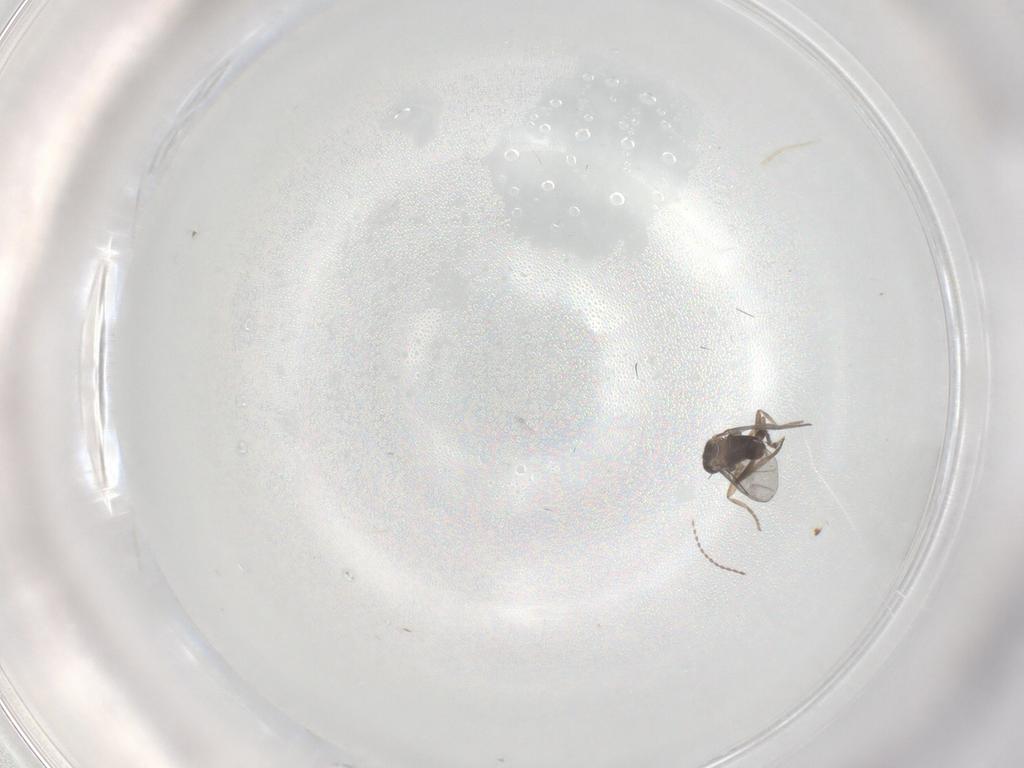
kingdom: Animalia
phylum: Arthropoda
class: Insecta
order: Diptera
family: Cecidomyiidae
